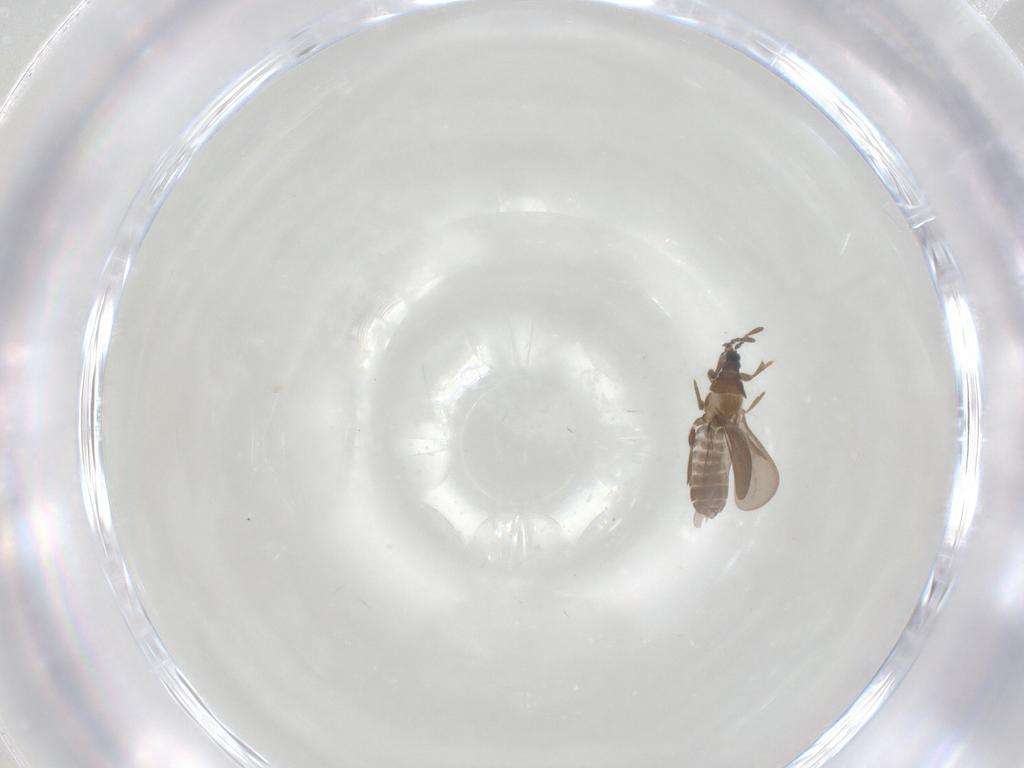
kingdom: Animalia
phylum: Arthropoda
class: Insecta
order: Hemiptera
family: Enicocephalidae
